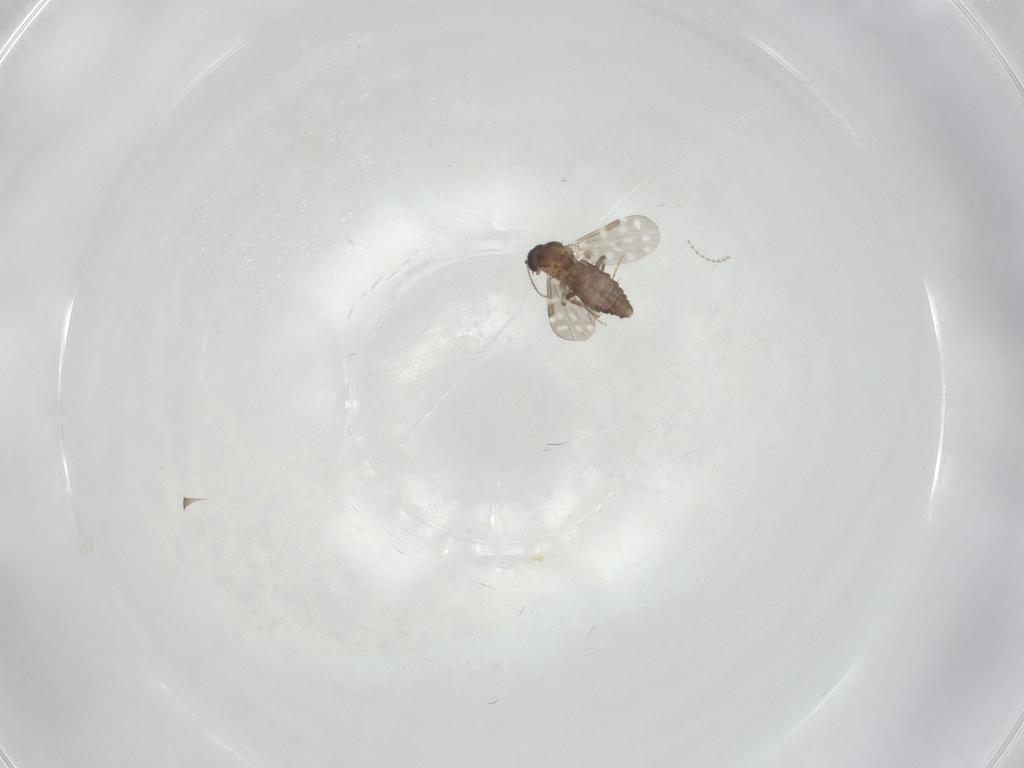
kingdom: Animalia
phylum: Arthropoda
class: Insecta
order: Diptera
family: Cecidomyiidae
